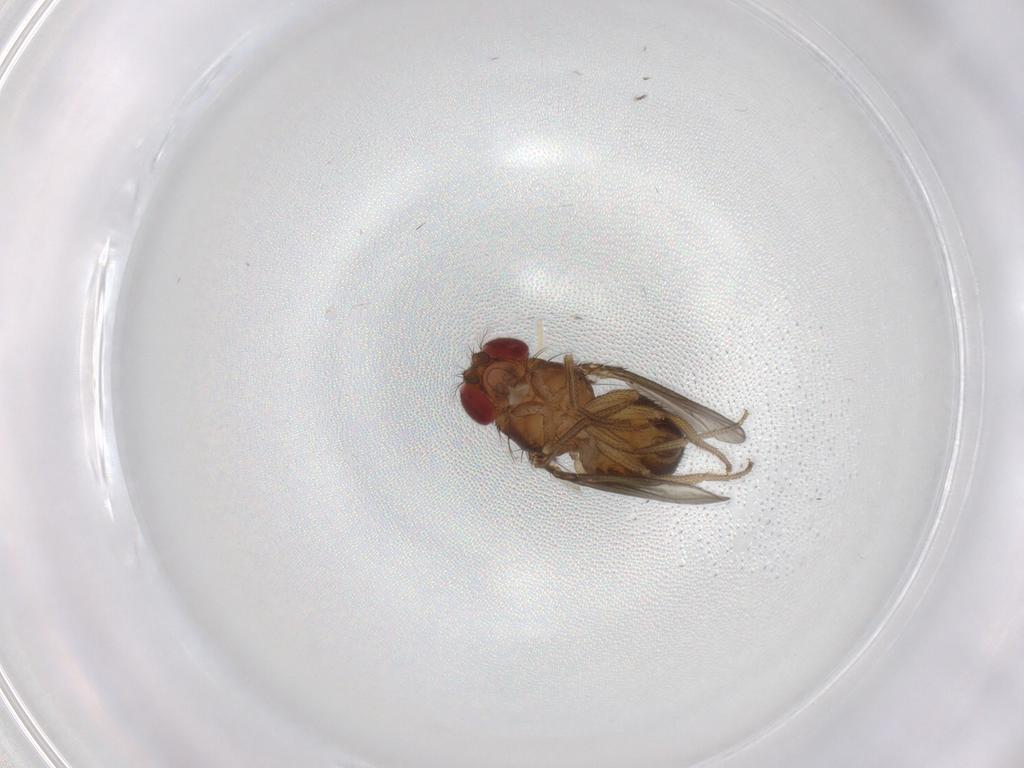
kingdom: Animalia
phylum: Arthropoda
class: Insecta
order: Diptera
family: Drosophilidae
